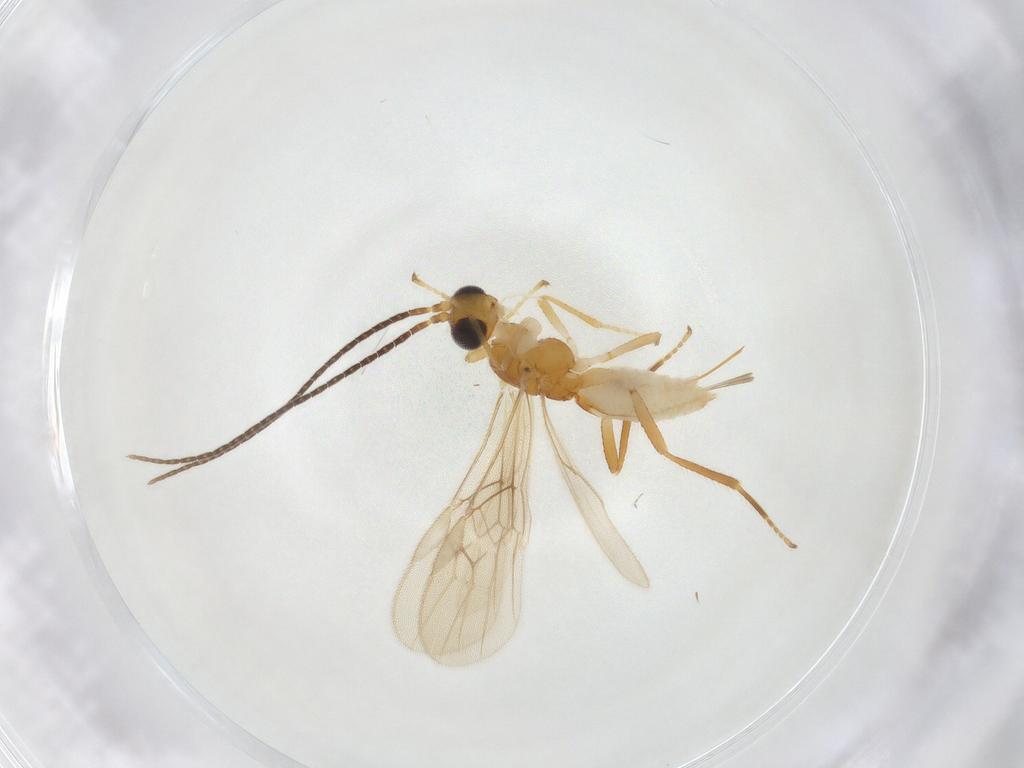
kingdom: Animalia
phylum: Arthropoda
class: Insecta
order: Hymenoptera
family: Braconidae
